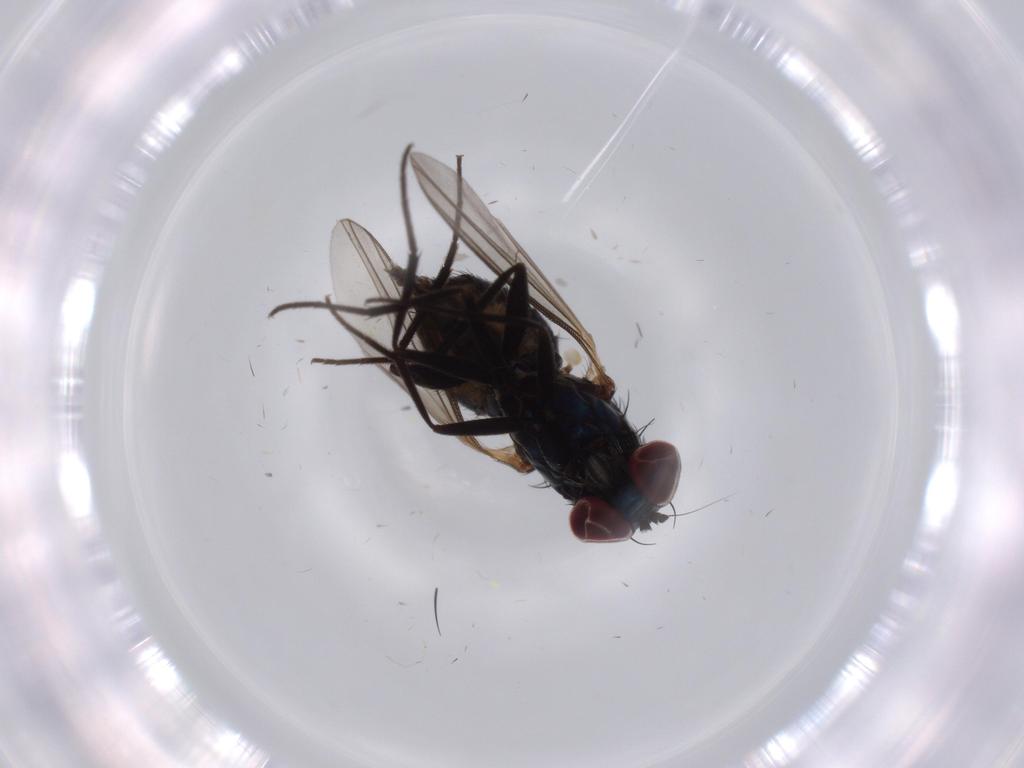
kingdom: Animalia
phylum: Arthropoda
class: Insecta
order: Diptera
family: Dolichopodidae
